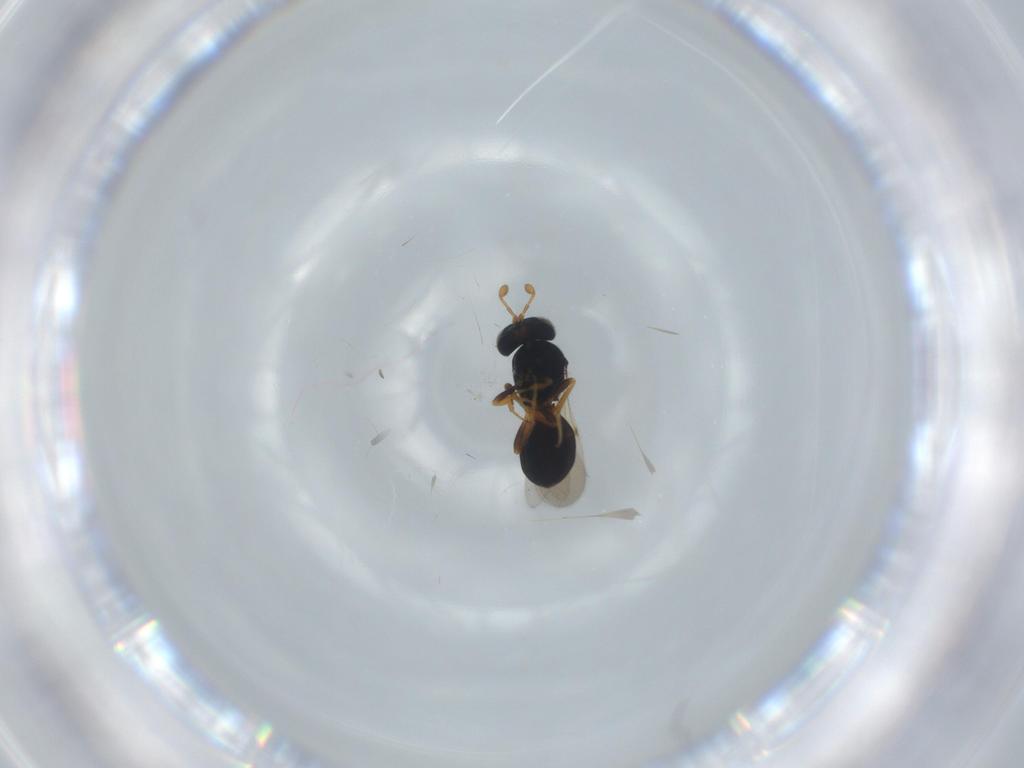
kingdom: Animalia
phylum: Arthropoda
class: Insecta
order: Hymenoptera
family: Scelionidae
